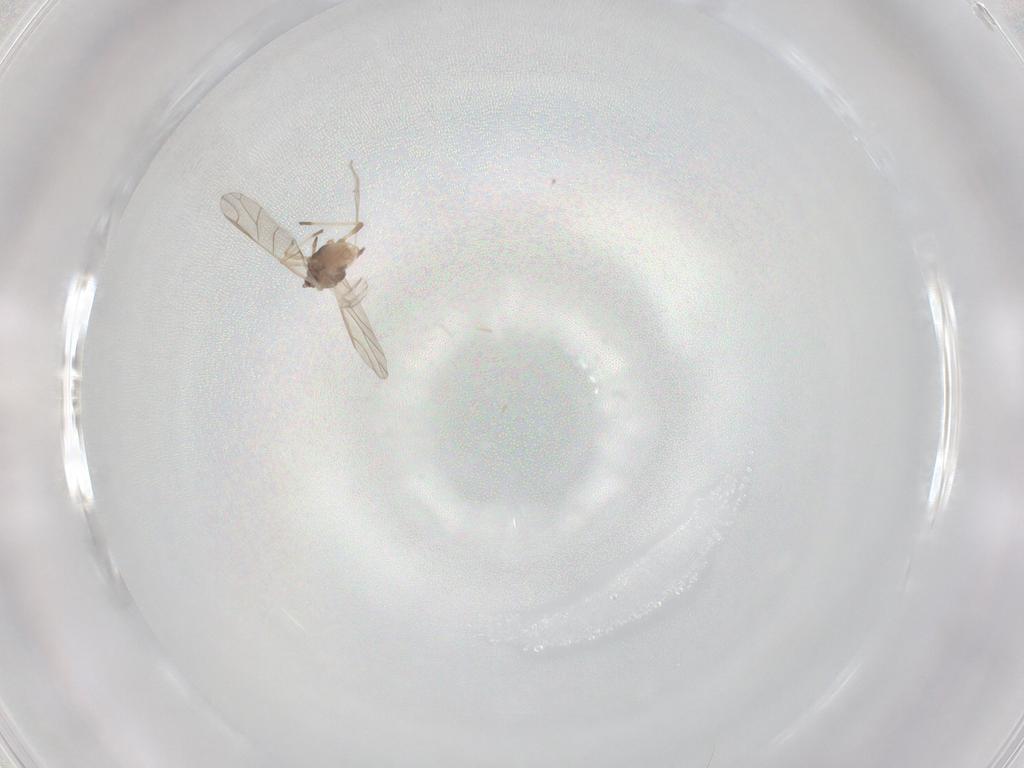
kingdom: Animalia
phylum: Arthropoda
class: Insecta
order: Hemiptera
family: Aphididae
